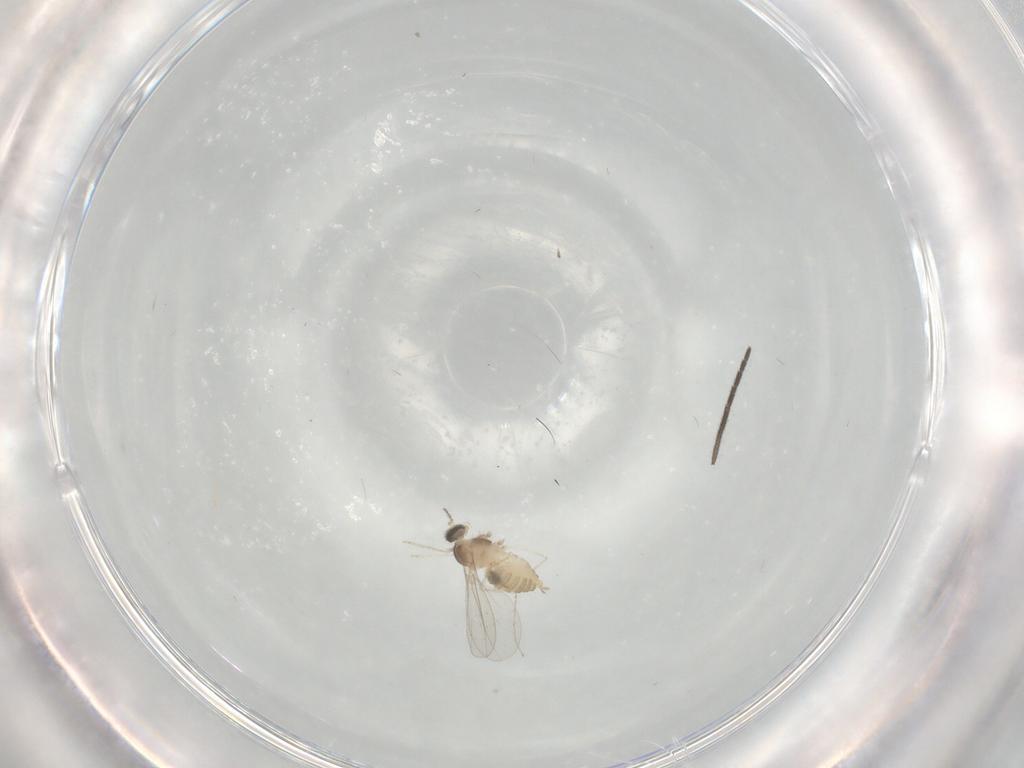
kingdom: Animalia
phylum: Arthropoda
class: Insecta
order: Diptera
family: Cecidomyiidae
